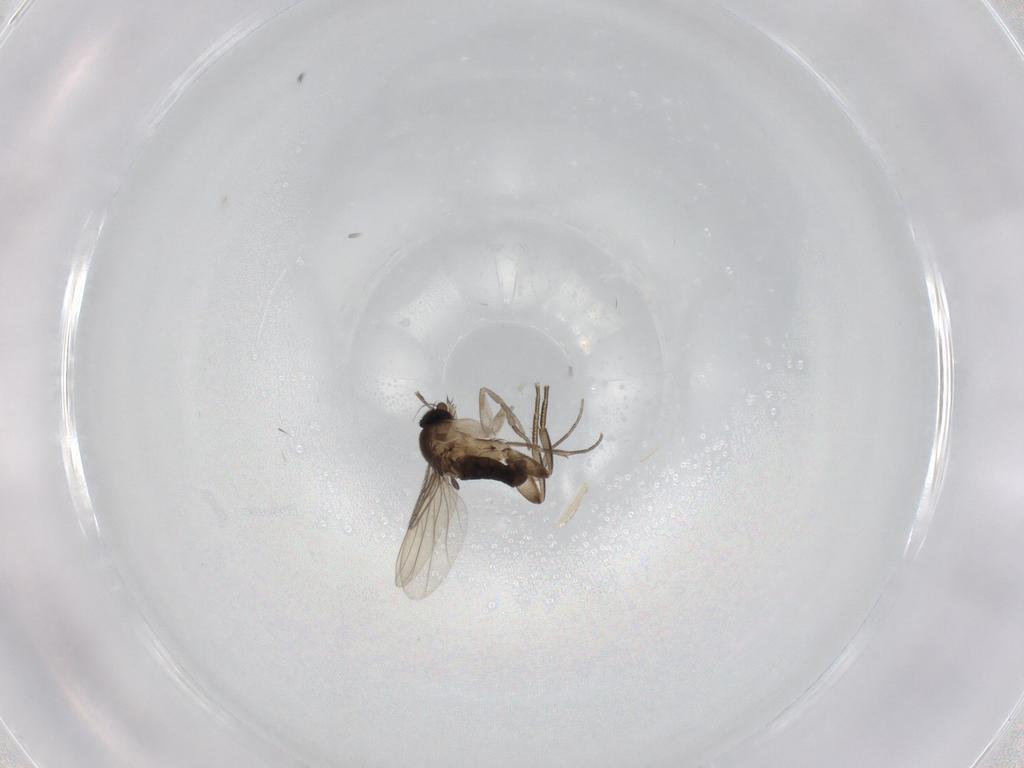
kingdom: Animalia
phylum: Arthropoda
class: Insecta
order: Diptera
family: Phoridae
